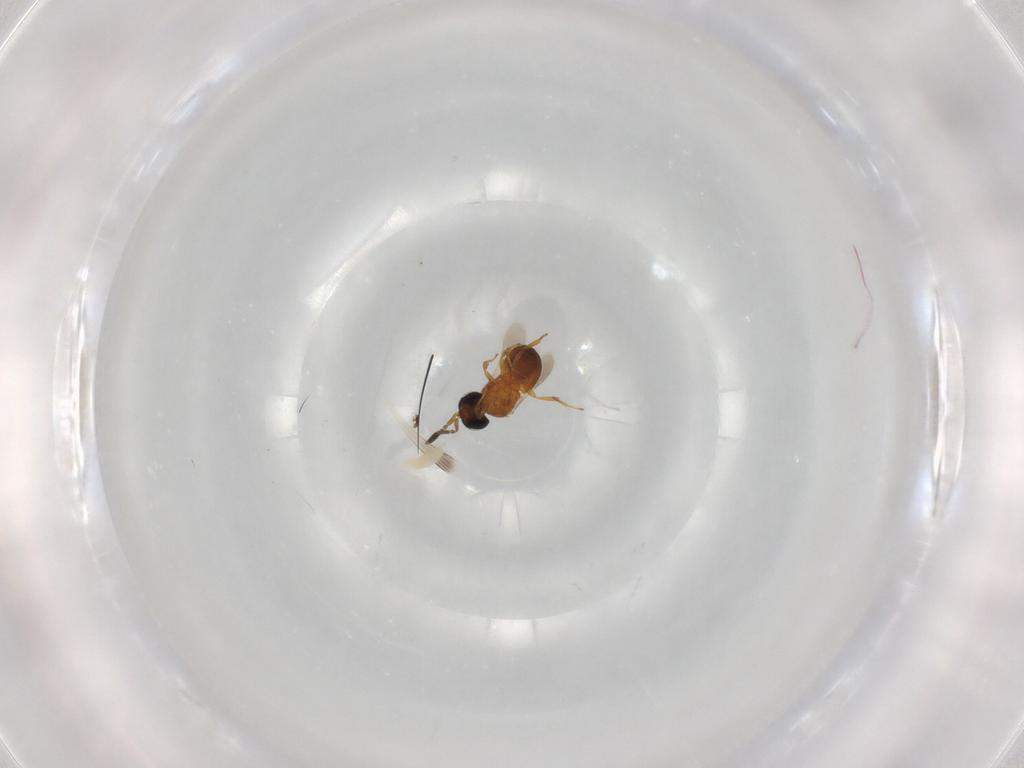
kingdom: Animalia
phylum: Arthropoda
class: Insecta
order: Hymenoptera
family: Scelionidae
